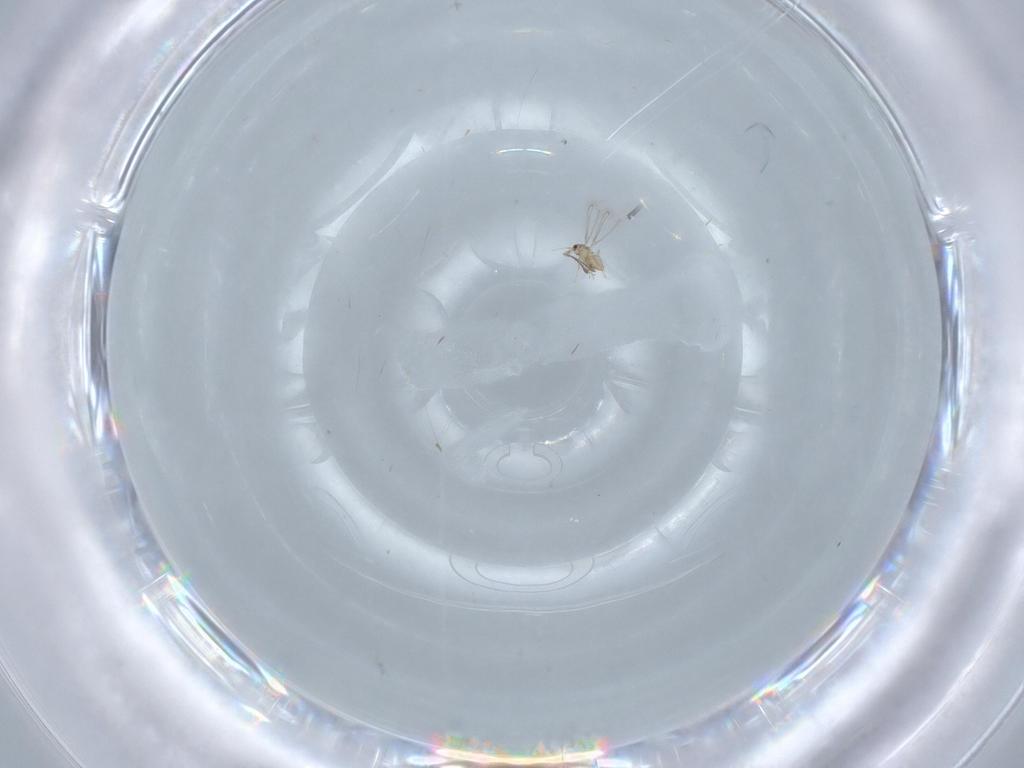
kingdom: Animalia
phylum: Arthropoda
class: Insecta
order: Hymenoptera
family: Mymaridae
